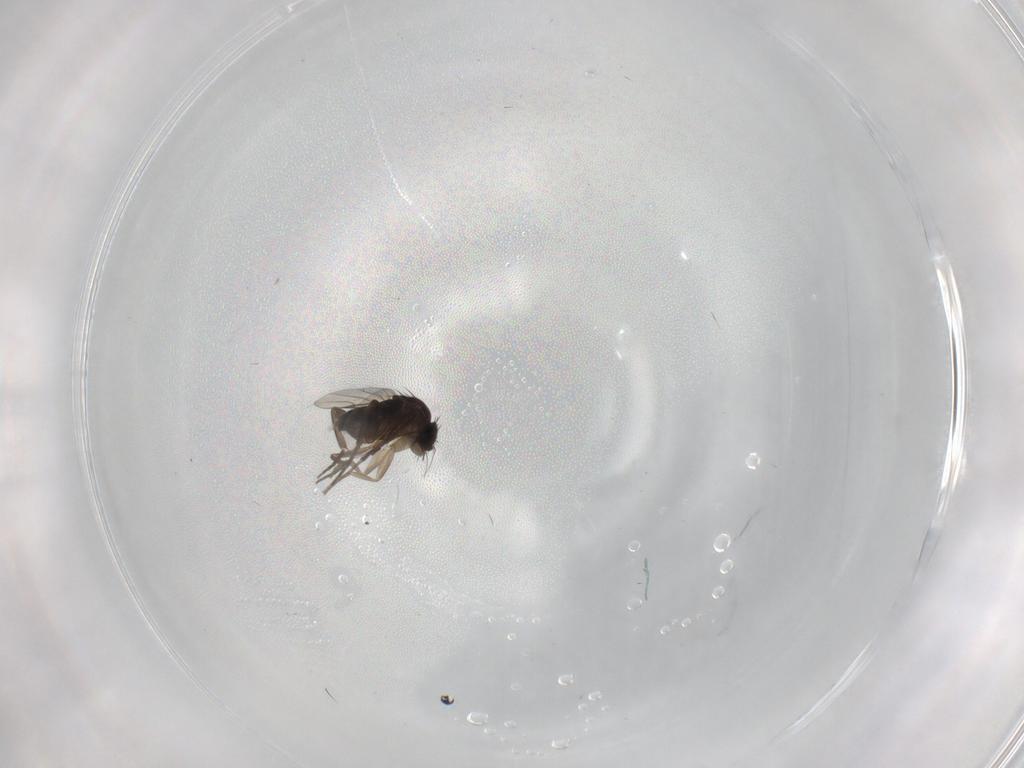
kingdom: Animalia
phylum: Arthropoda
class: Insecta
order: Diptera
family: Phoridae
